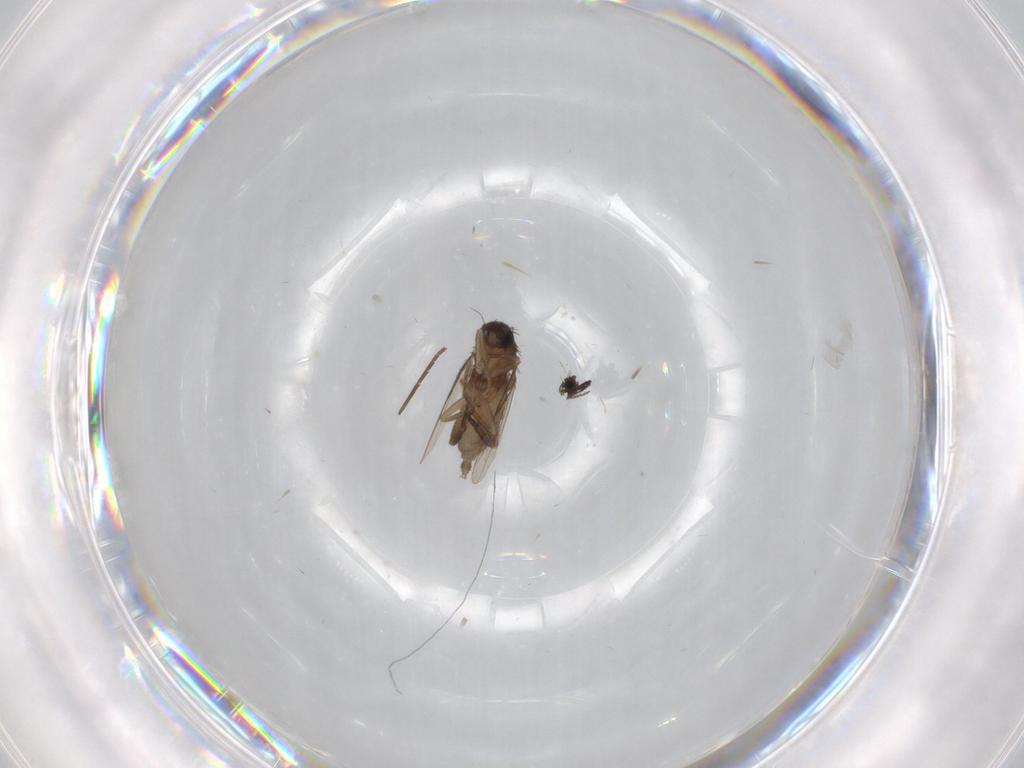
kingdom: Animalia
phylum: Arthropoda
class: Insecta
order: Diptera
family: Phoridae
